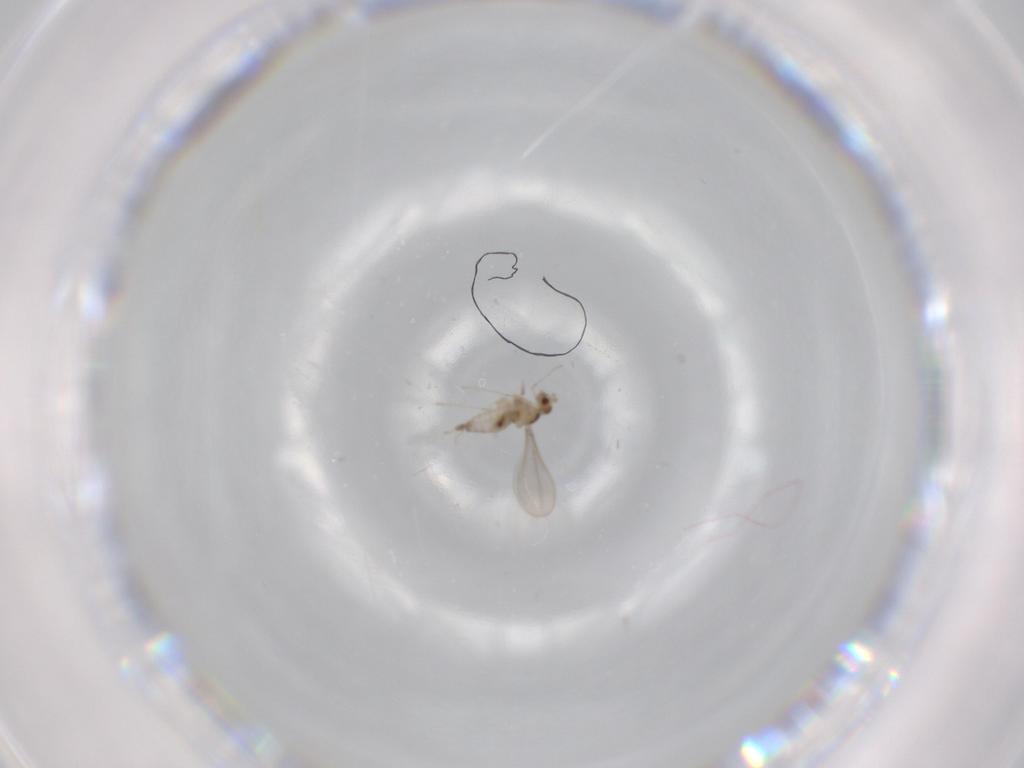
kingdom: Animalia
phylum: Arthropoda
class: Insecta
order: Diptera
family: Cecidomyiidae
